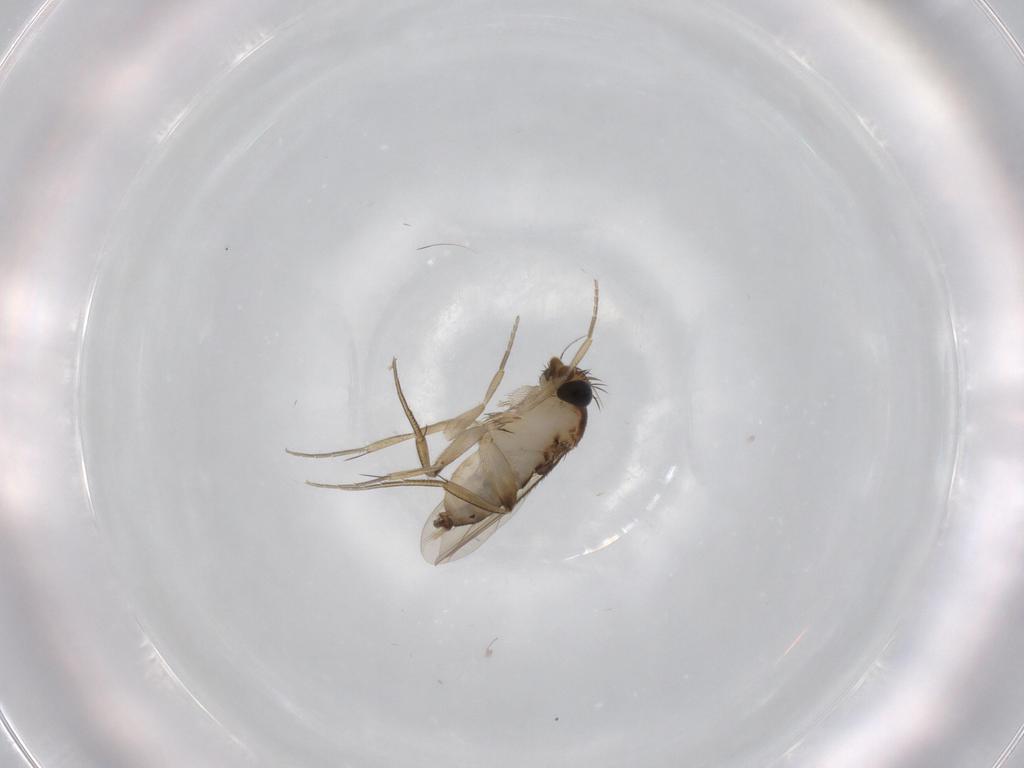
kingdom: Animalia
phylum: Arthropoda
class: Insecta
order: Diptera
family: Phoridae
